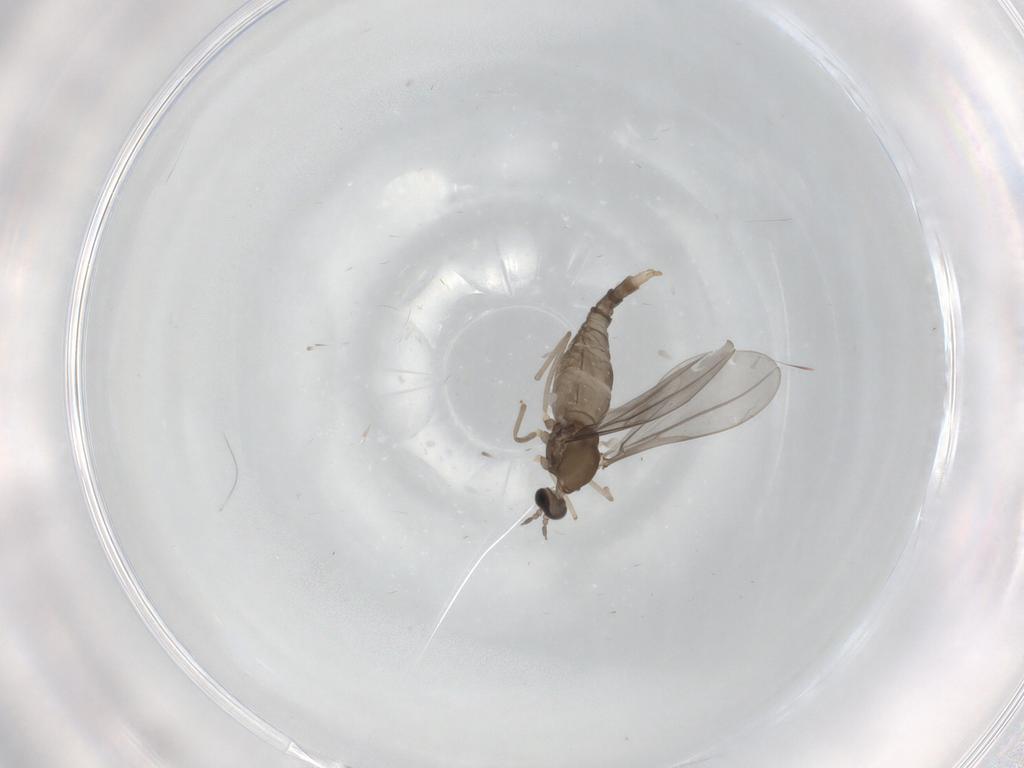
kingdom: Animalia
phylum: Arthropoda
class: Insecta
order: Diptera
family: Cecidomyiidae
